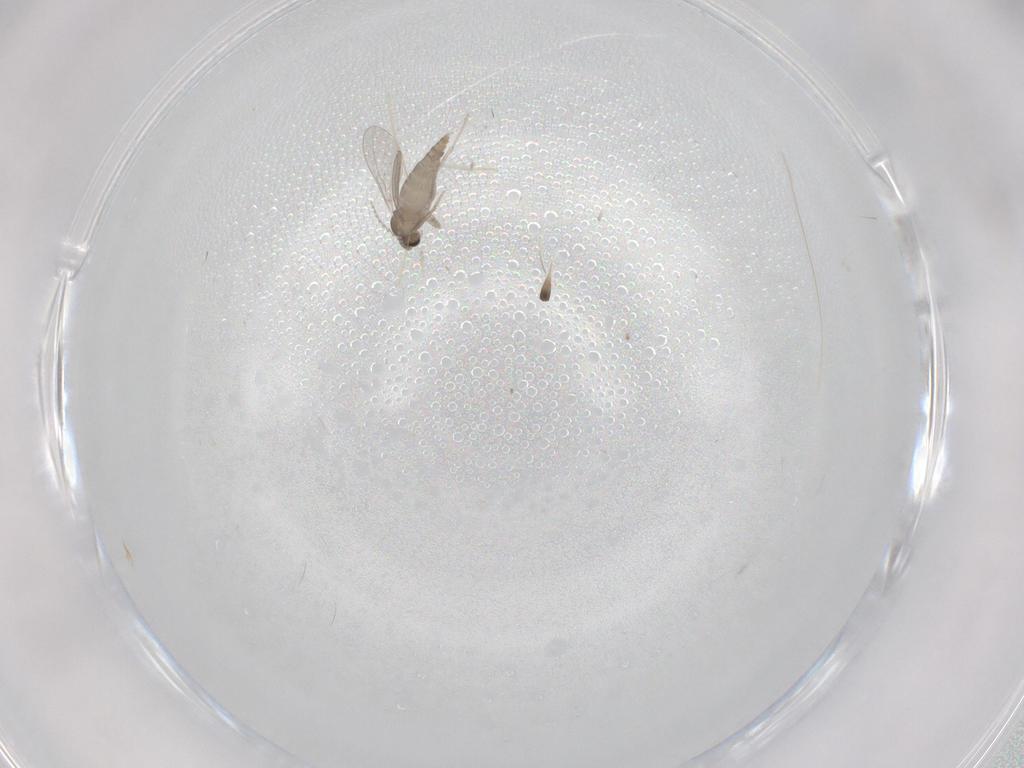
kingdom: Animalia
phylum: Arthropoda
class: Insecta
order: Diptera
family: Cecidomyiidae
